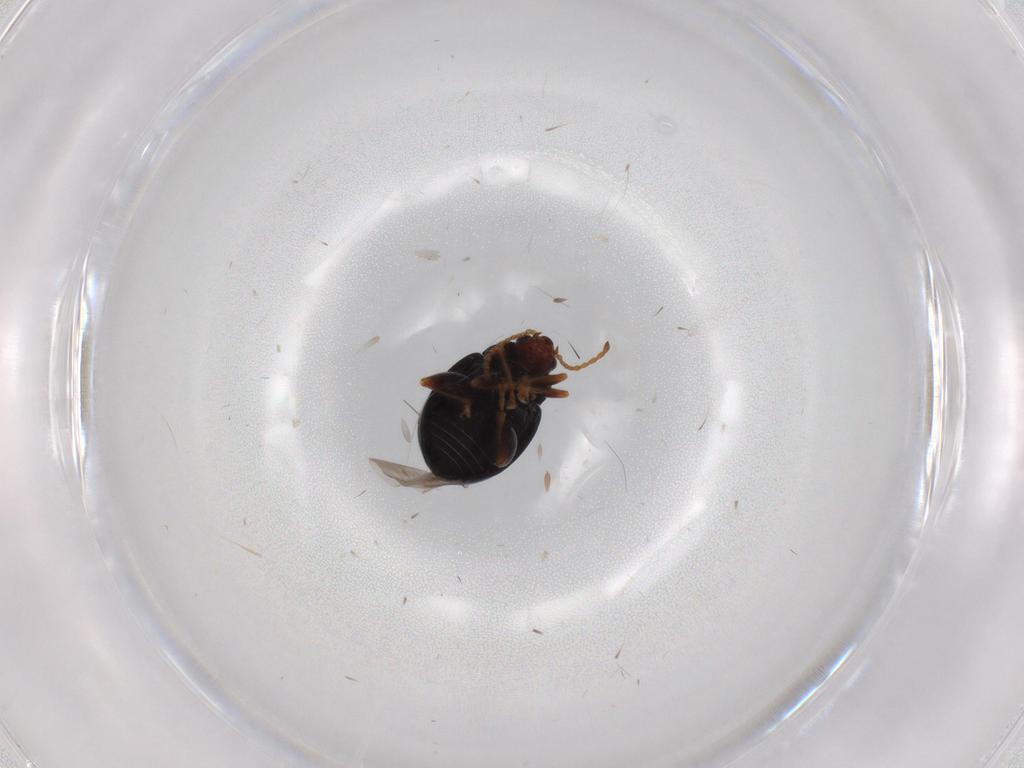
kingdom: Animalia
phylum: Arthropoda
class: Insecta
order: Coleoptera
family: Chrysomelidae
